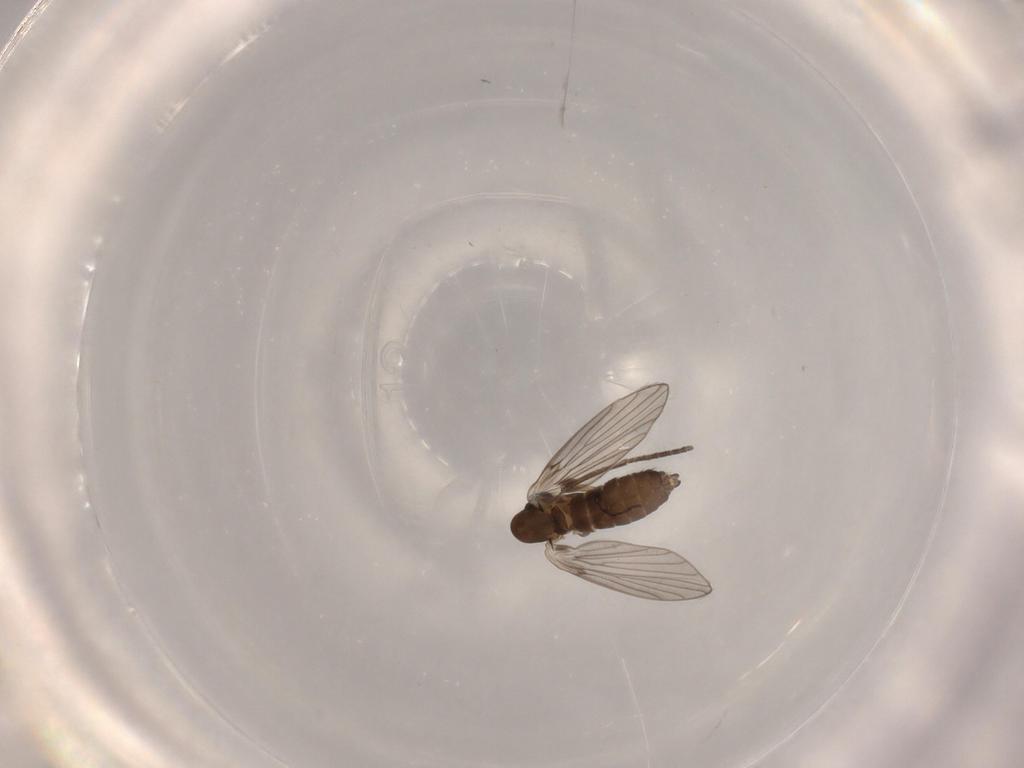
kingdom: Animalia
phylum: Arthropoda
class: Insecta
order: Diptera
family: Psychodidae
